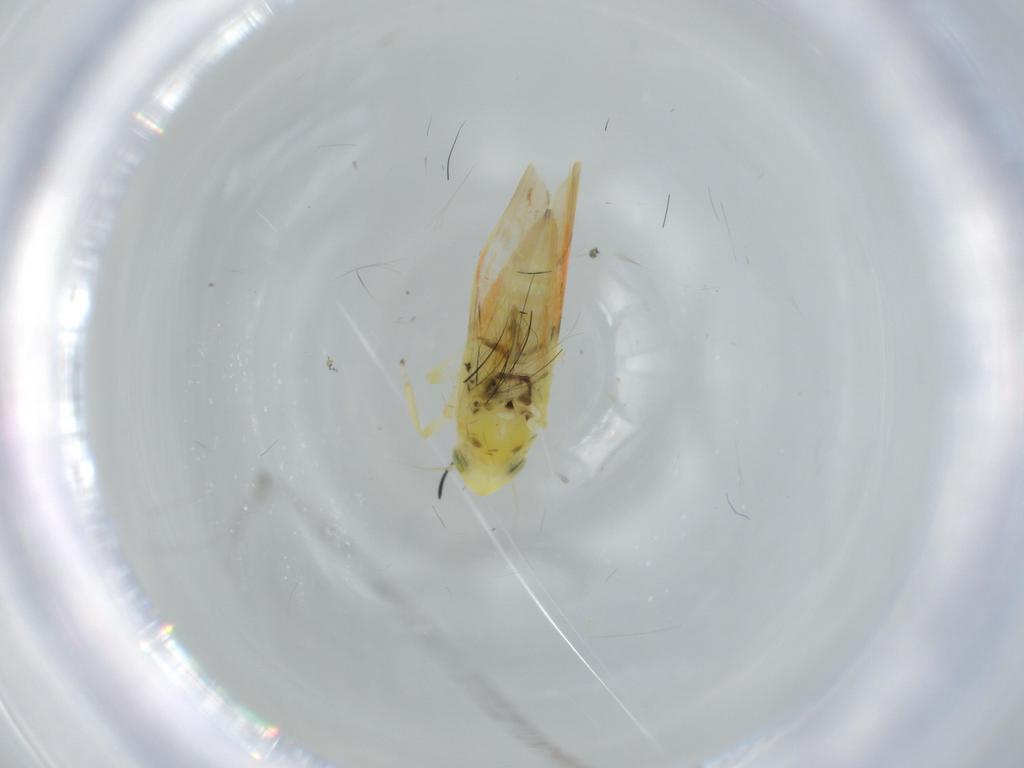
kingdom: Animalia
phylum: Arthropoda
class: Insecta
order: Hemiptera
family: Cicadellidae
